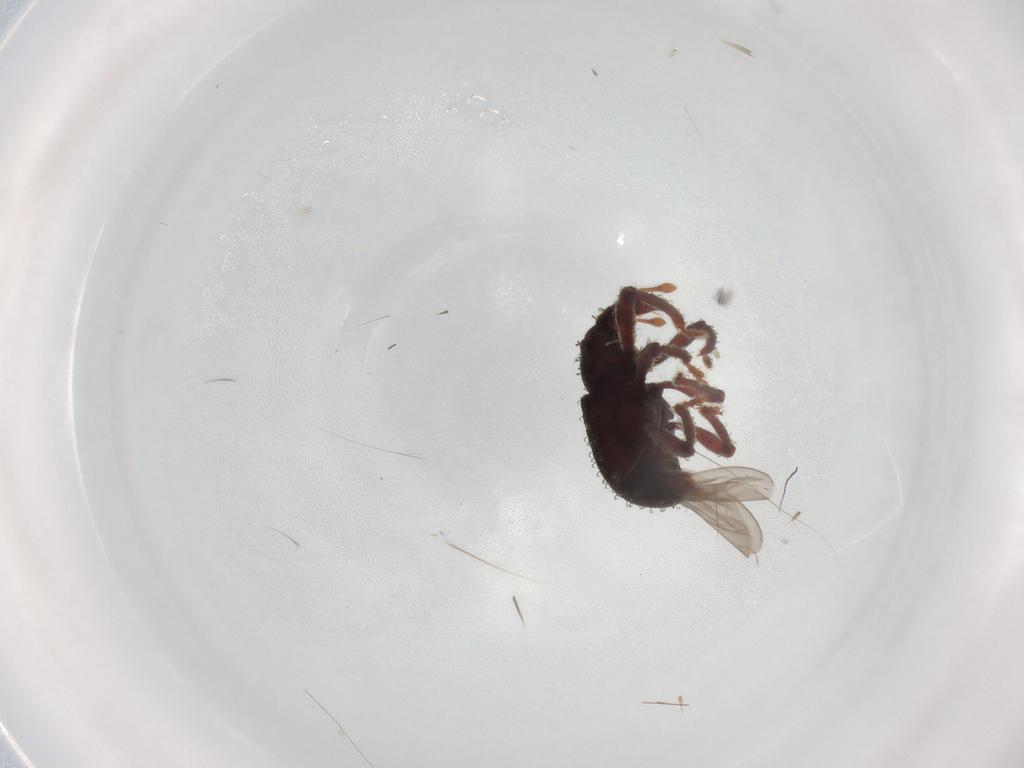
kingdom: Animalia
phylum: Arthropoda
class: Insecta
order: Coleoptera
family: Curculionidae
